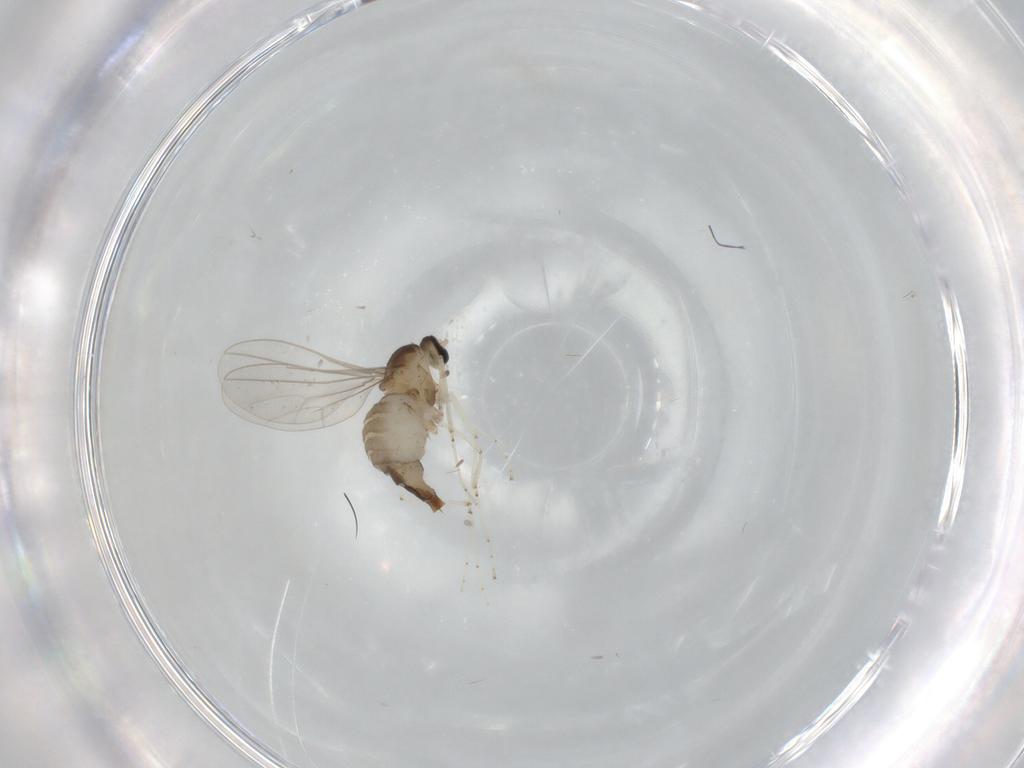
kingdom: Animalia
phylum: Arthropoda
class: Insecta
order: Diptera
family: Cecidomyiidae
